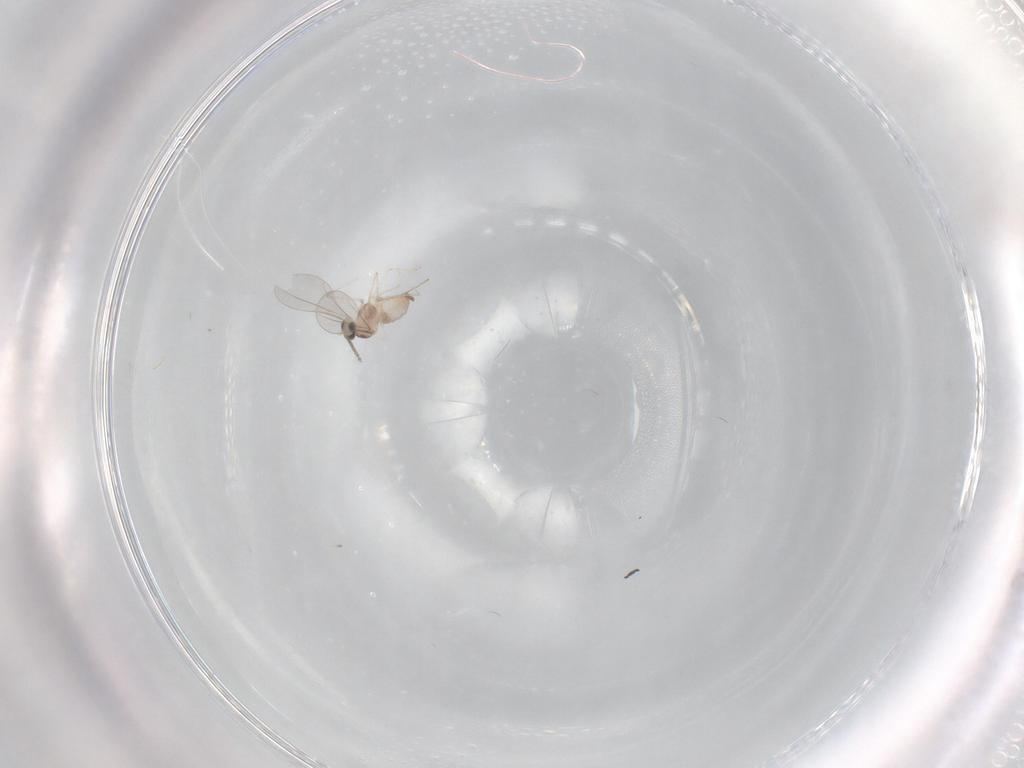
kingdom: Animalia
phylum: Arthropoda
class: Insecta
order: Diptera
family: Cecidomyiidae
